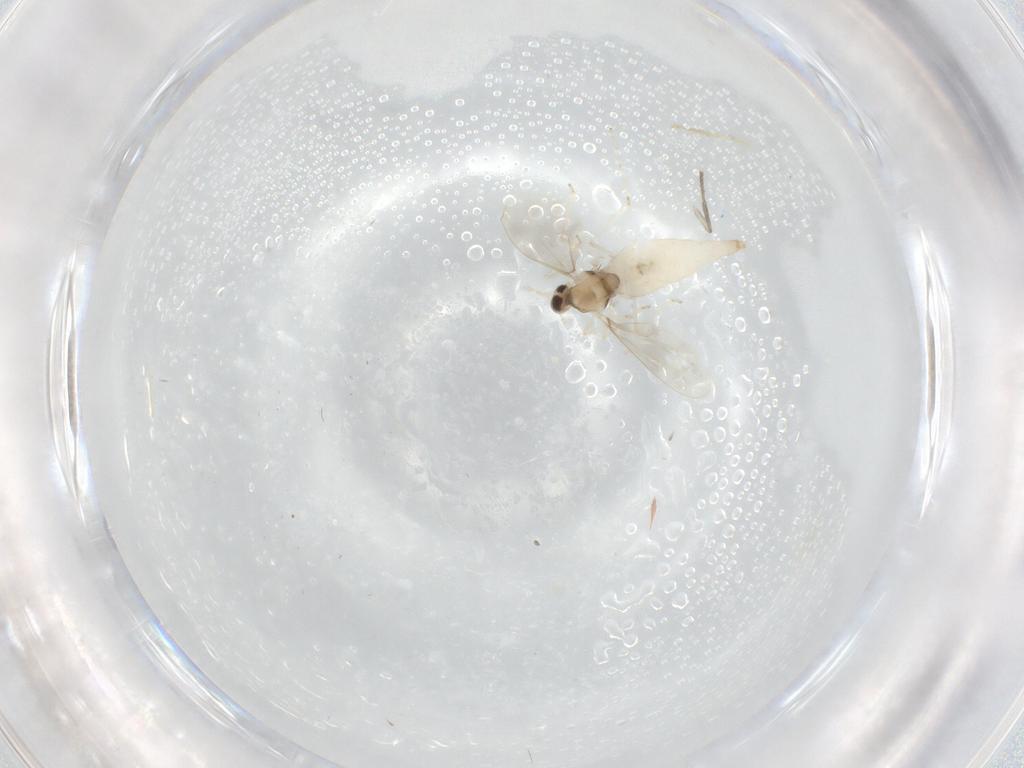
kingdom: Animalia
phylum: Arthropoda
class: Insecta
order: Diptera
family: Cecidomyiidae
